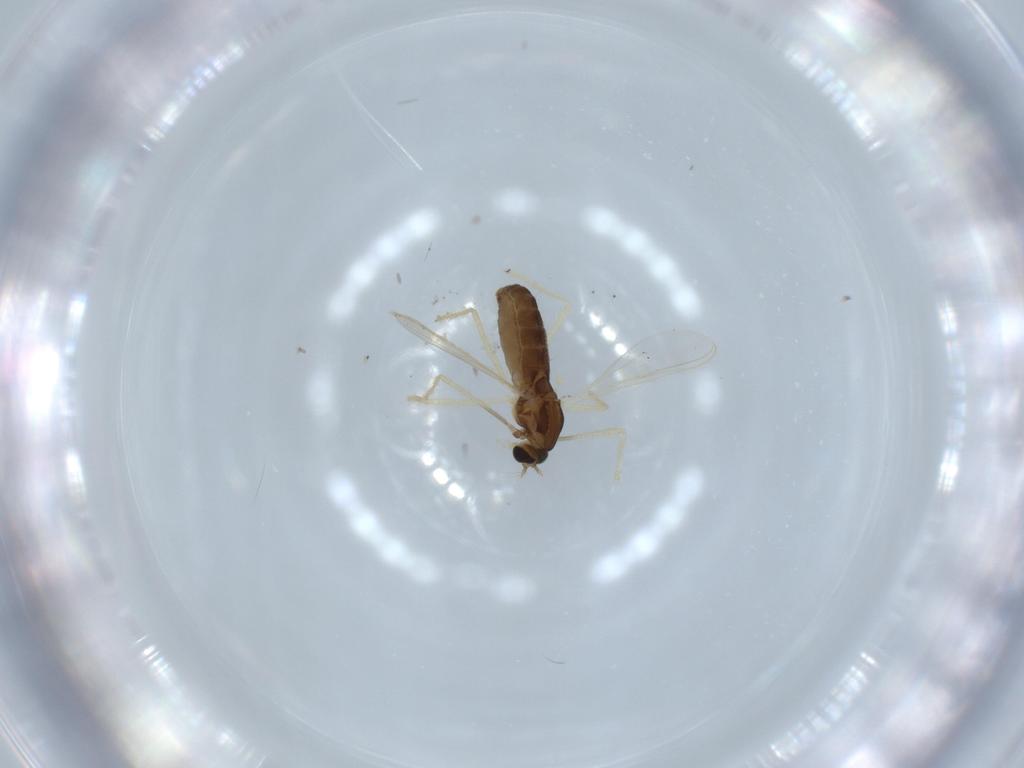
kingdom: Animalia
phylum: Arthropoda
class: Insecta
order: Diptera
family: Chironomidae
